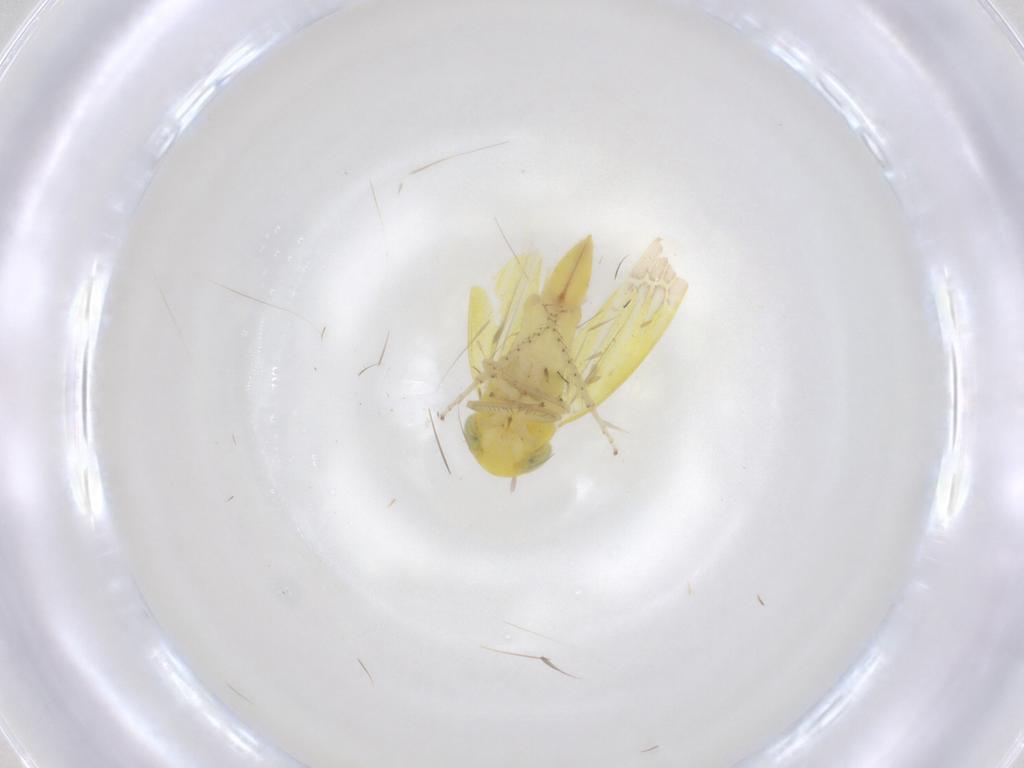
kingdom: Animalia
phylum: Arthropoda
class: Insecta
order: Hemiptera
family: Cicadellidae
